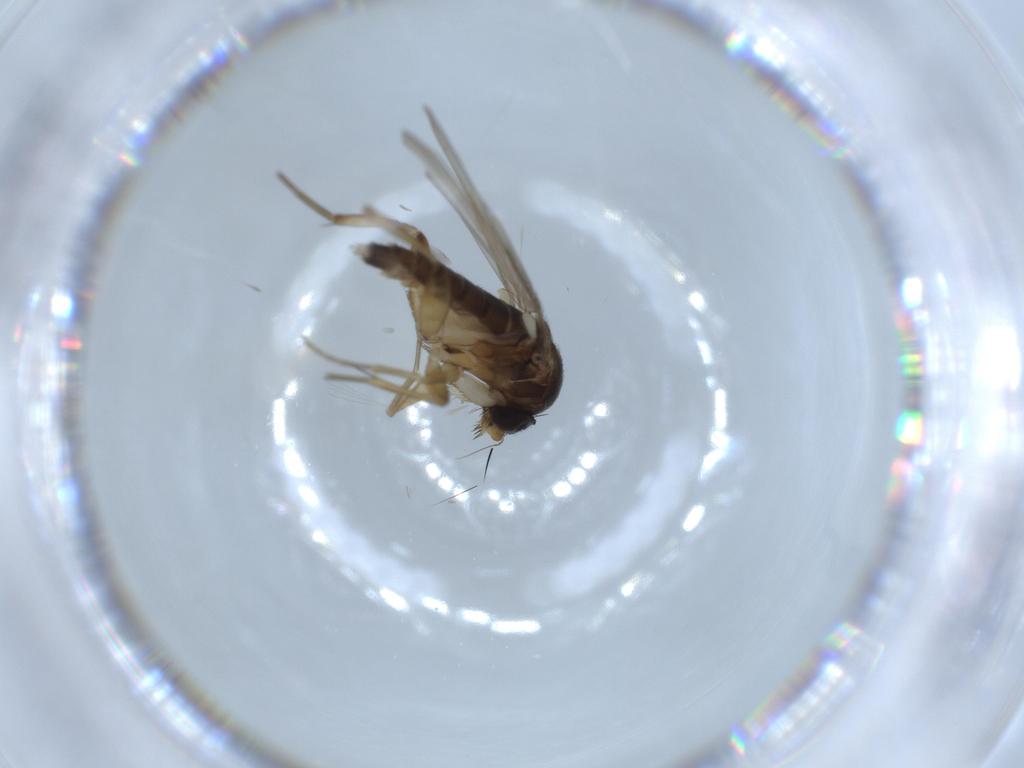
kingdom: Animalia
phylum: Arthropoda
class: Insecta
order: Diptera
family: Phoridae
